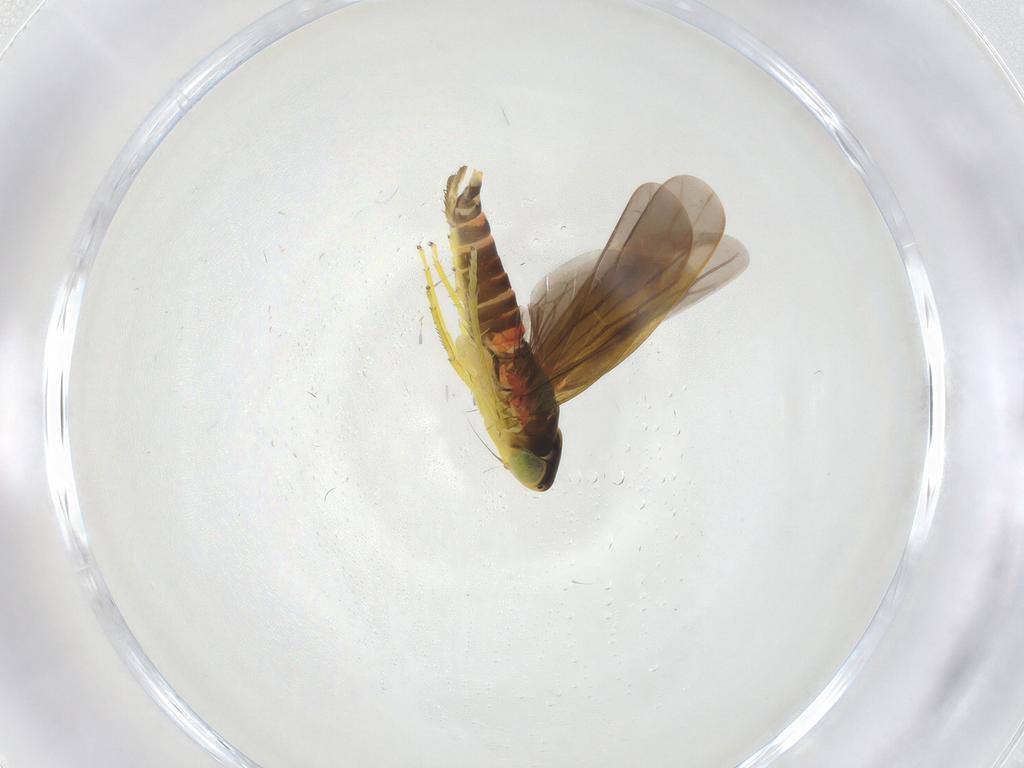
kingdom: Animalia
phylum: Arthropoda
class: Insecta
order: Hemiptera
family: Cicadellidae
